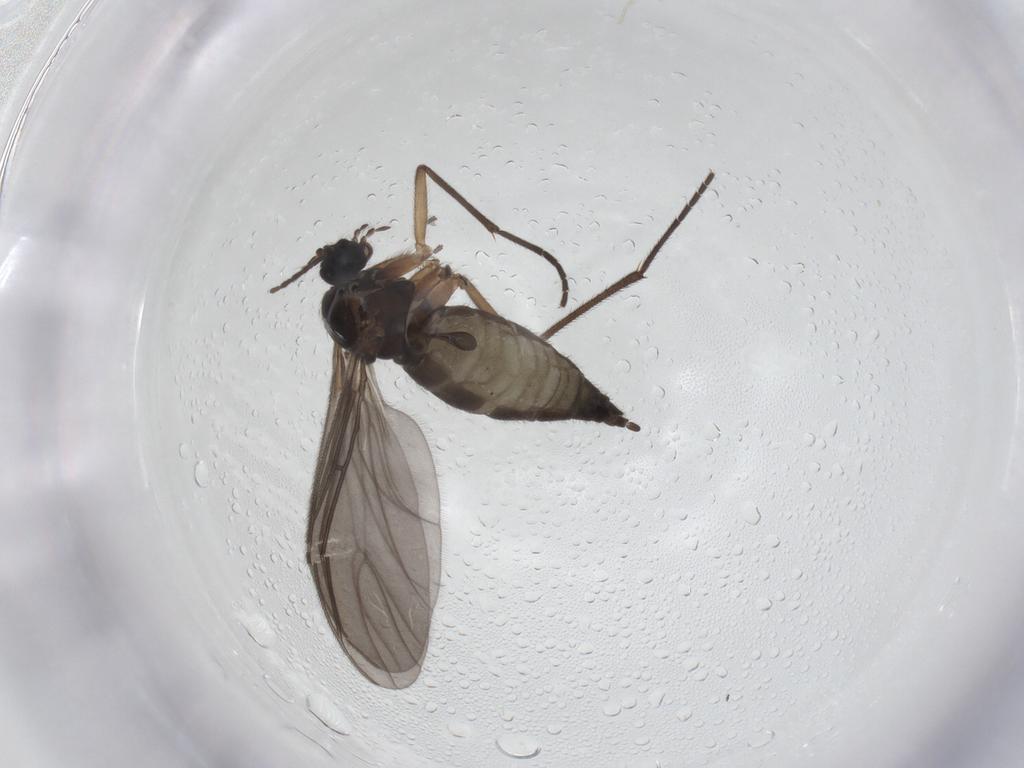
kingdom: Animalia
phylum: Arthropoda
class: Insecta
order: Diptera
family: Sciaridae
